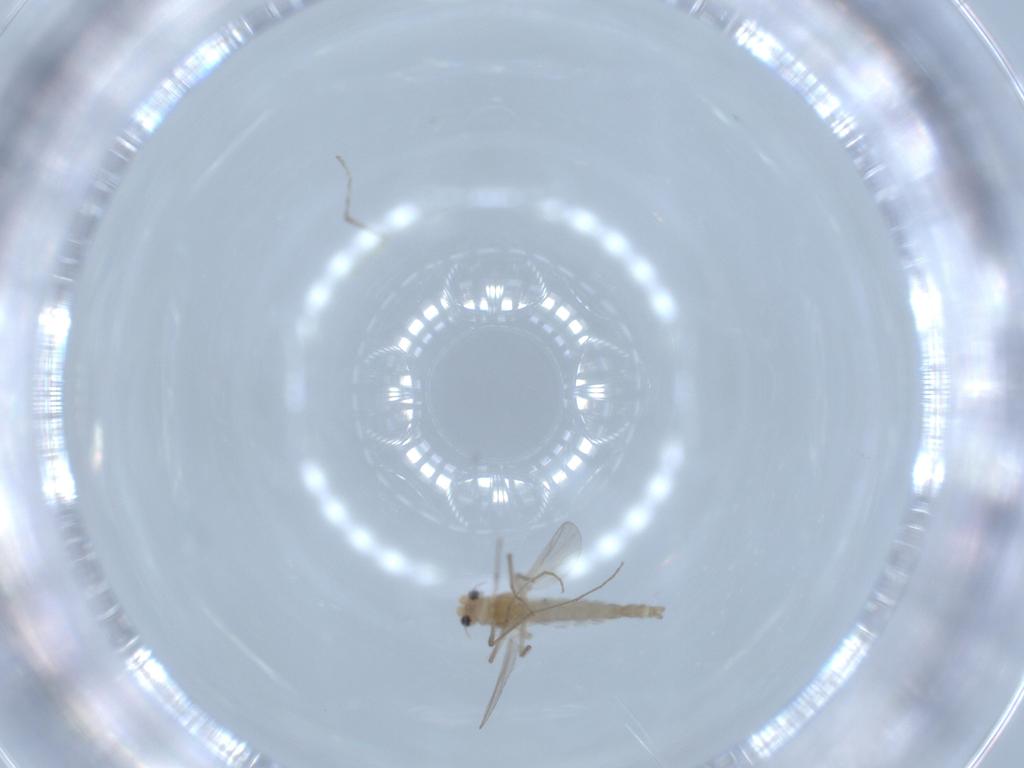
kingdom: Animalia
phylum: Arthropoda
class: Insecta
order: Diptera
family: Chironomidae
